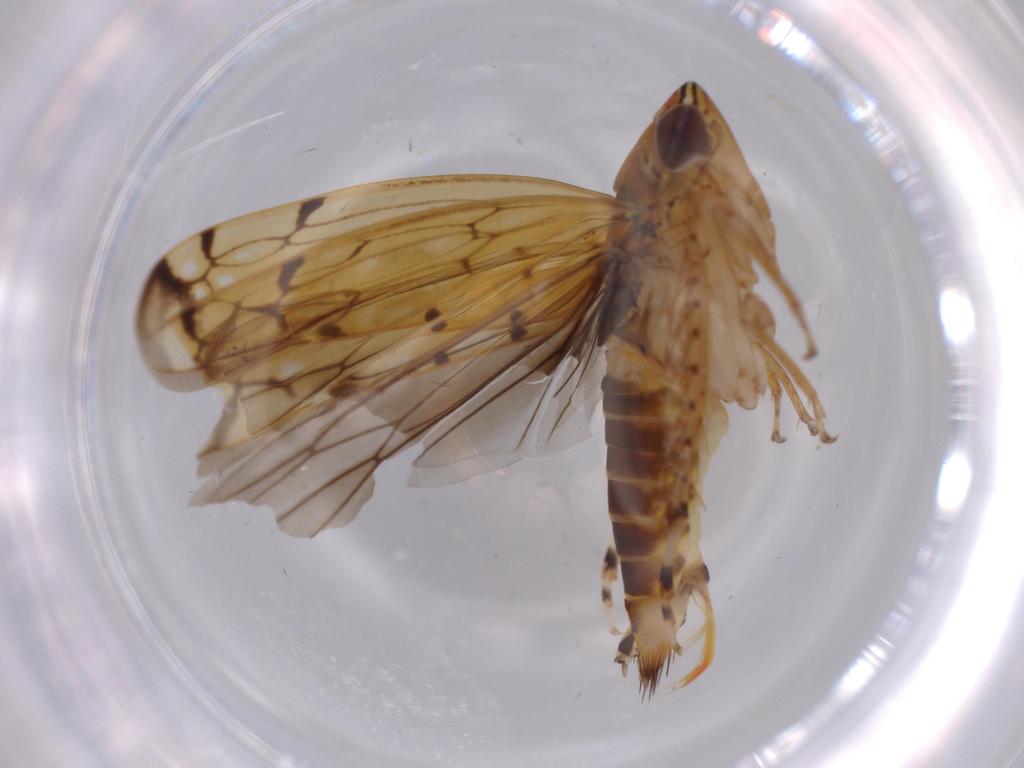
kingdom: Animalia
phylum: Arthropoda
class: Insecta
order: Hemiptera
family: Cicadellidae
